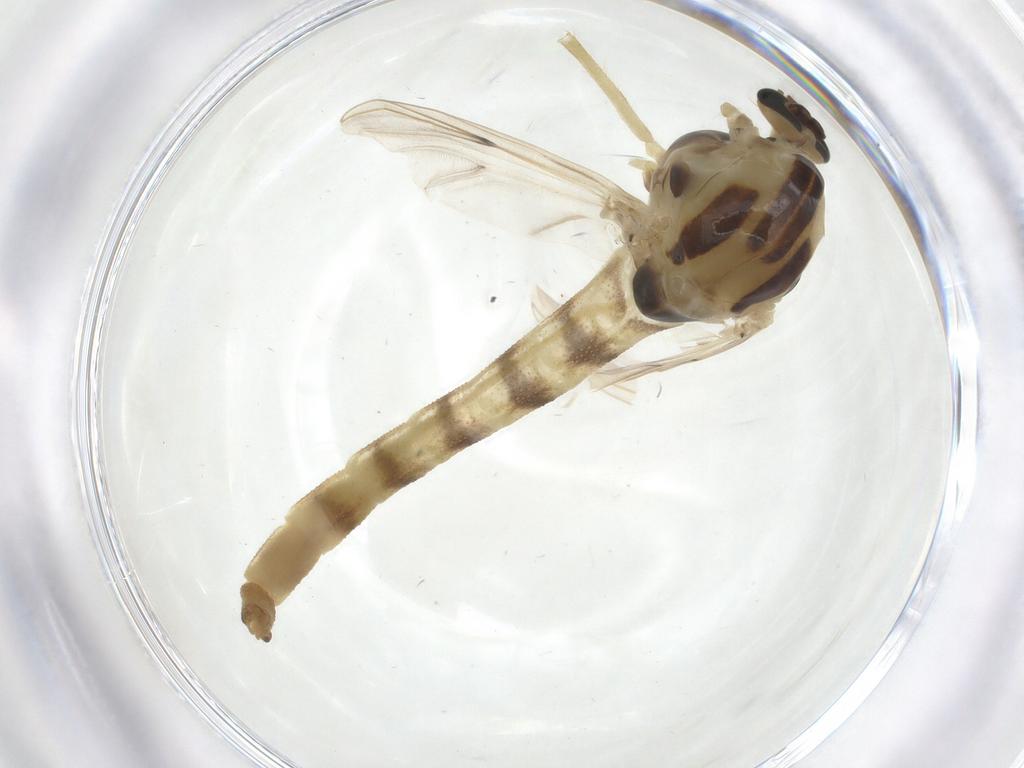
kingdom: Animalia
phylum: Arthropoda
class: Insecta
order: Diptera
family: Chironomidae
